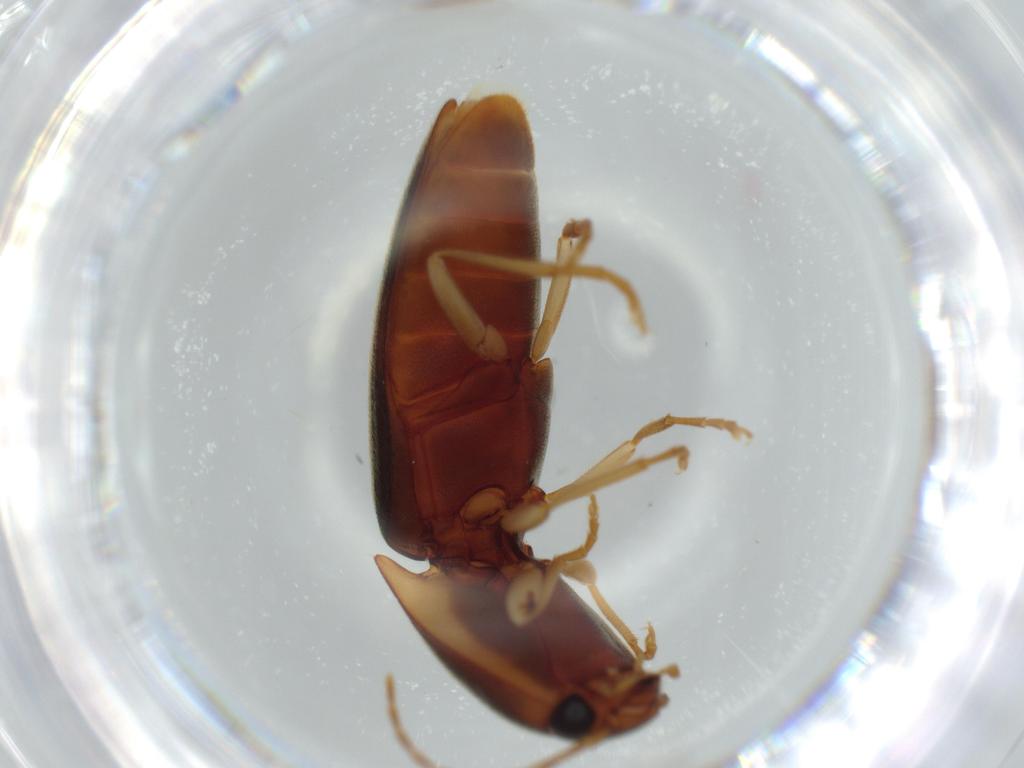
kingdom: Animalia
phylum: Arthropoda
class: Insecta
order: Coleoptera
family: Elateridae
